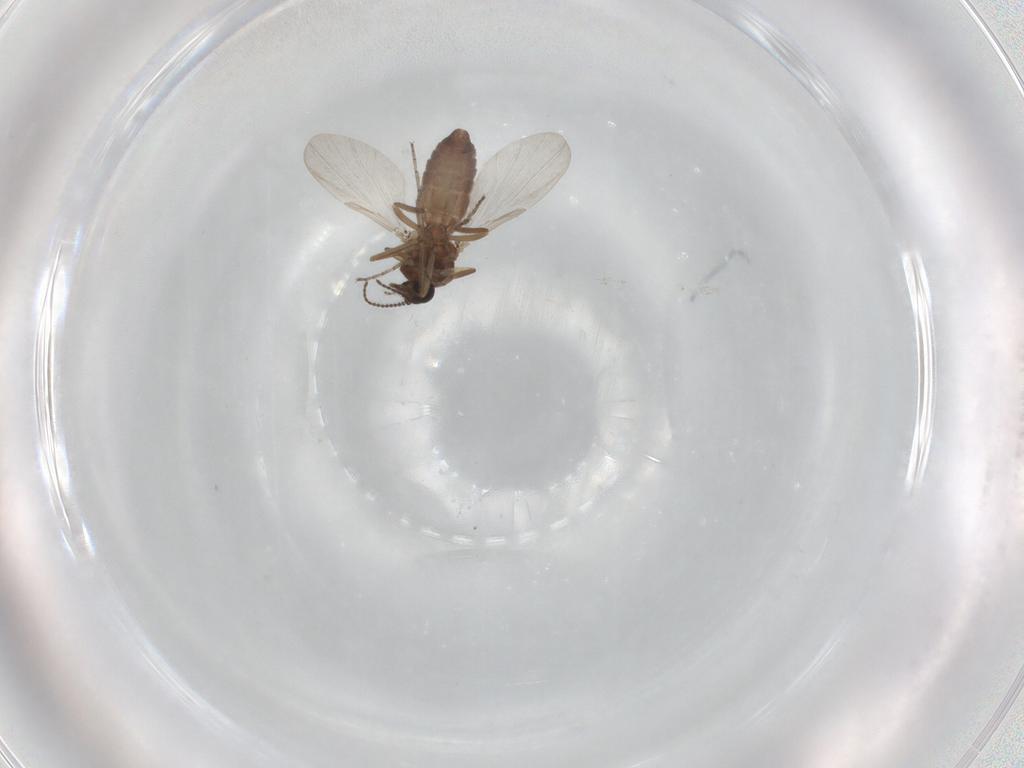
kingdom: Animalia
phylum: Arthropoda
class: Insecta
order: Diptera
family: Ceratopogonidae
